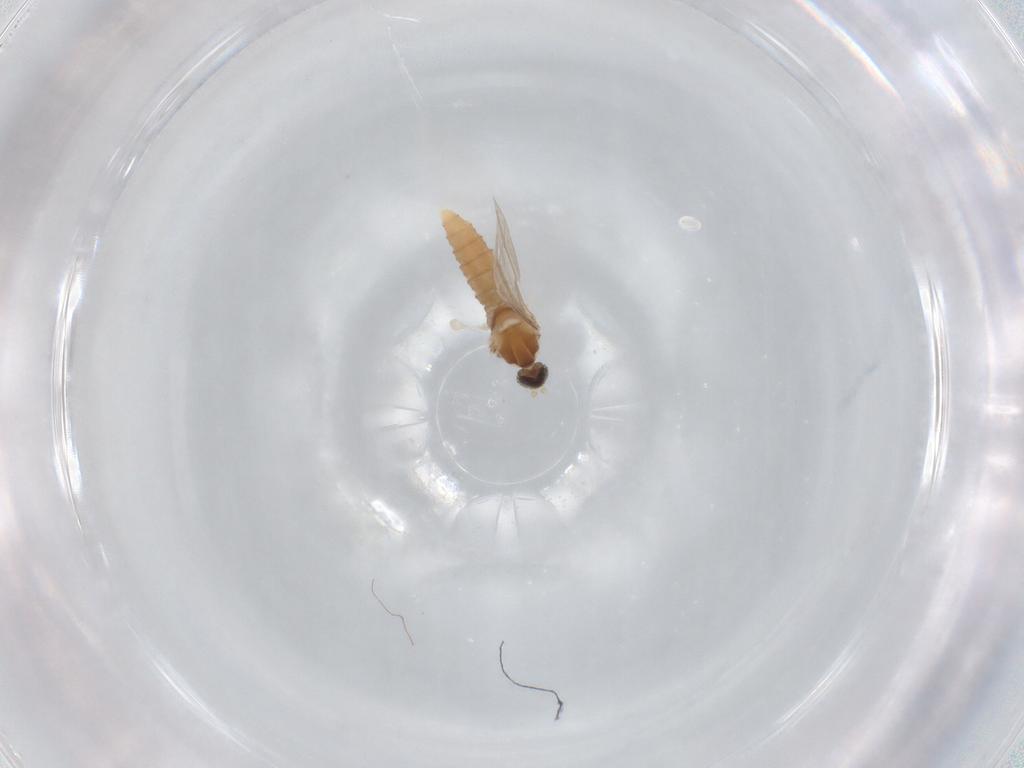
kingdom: Animalia
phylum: Arthropoda
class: Insecta
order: Diptera
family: Cecidomyiidae
